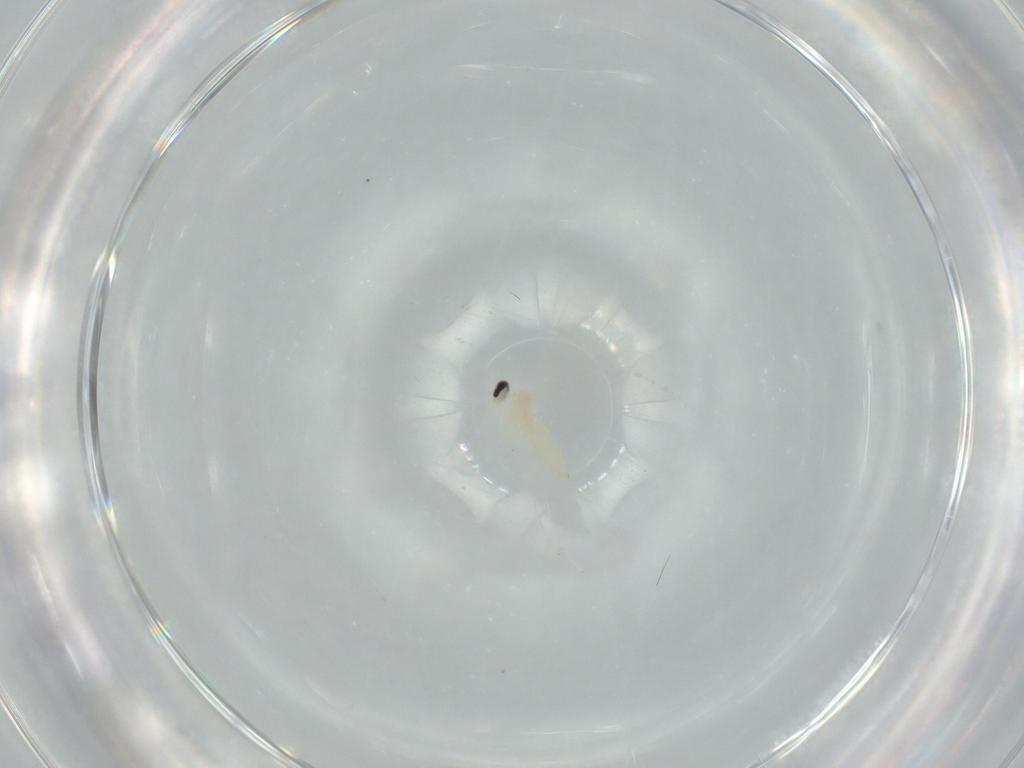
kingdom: Animalia
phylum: Arthropoda
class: Insecta
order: Diptera
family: Cecidomyiidae
